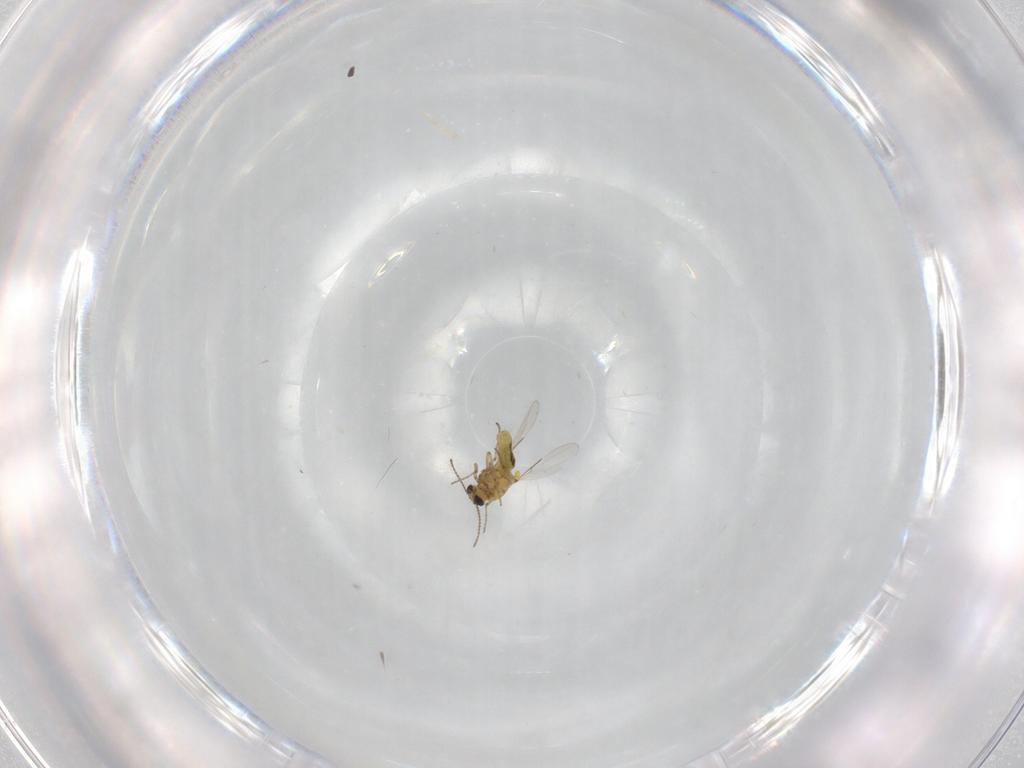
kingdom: Animalia
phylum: Arthropoda
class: Insecta
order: Diptera
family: Ceratopogonidae
